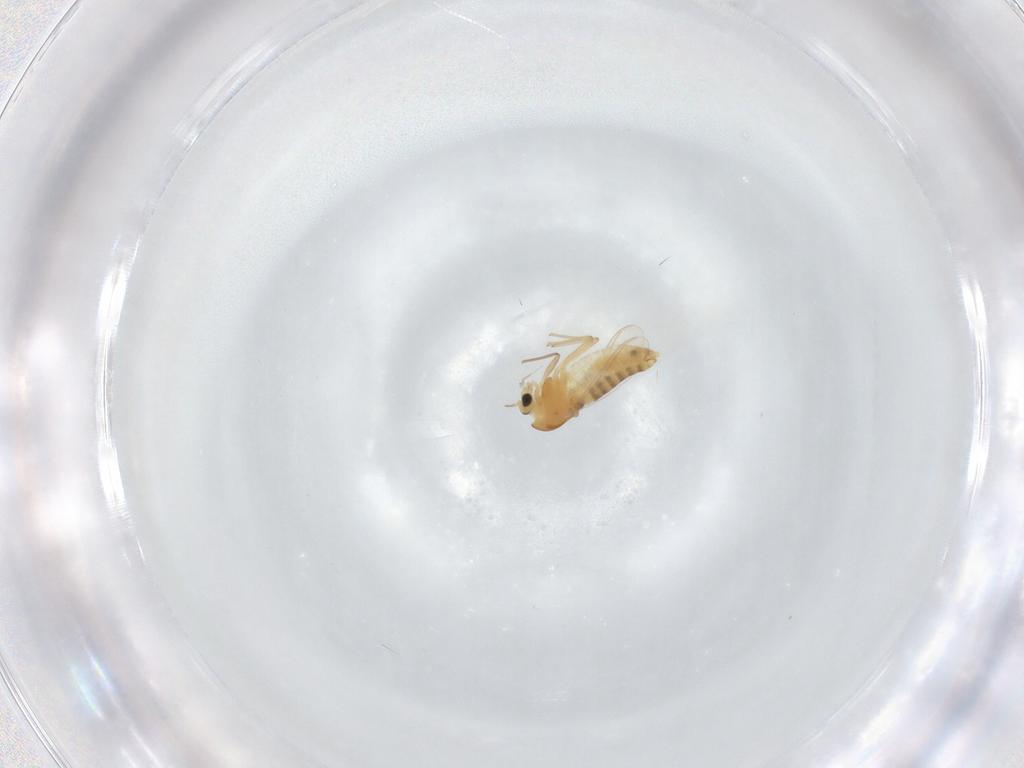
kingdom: Animalia
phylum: Arthropoda
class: Insecta
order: Diptera
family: Chironomidae
